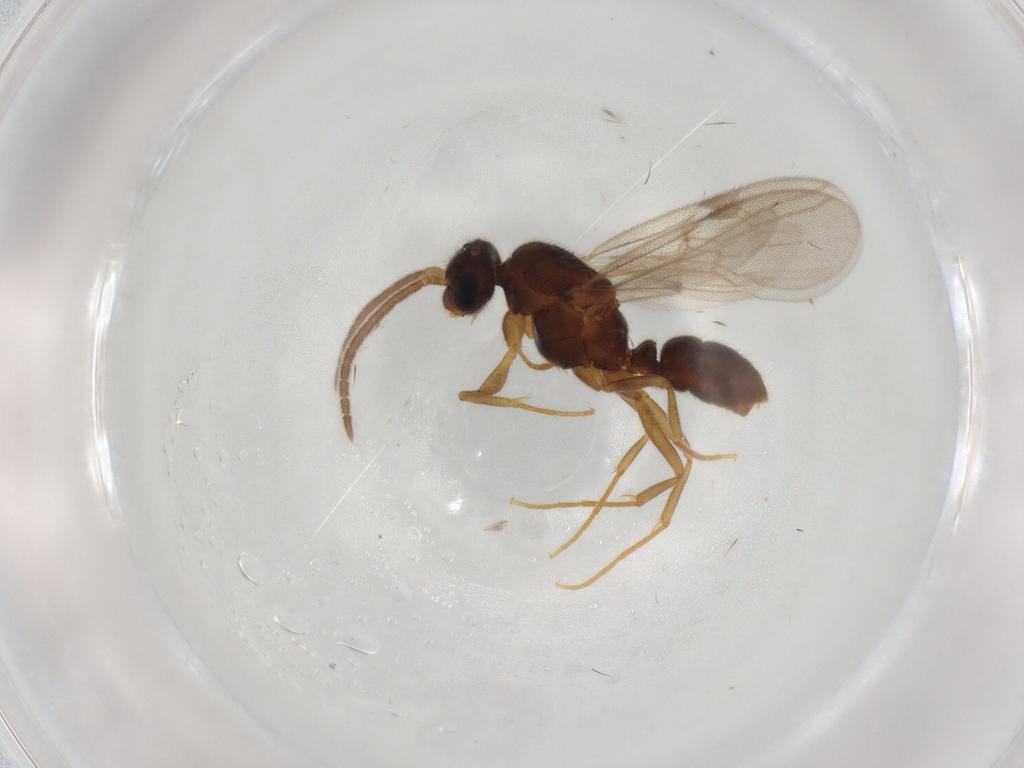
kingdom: Animalia
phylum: Arthropoda
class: Insecta
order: Hymenoptera
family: Formicidae
